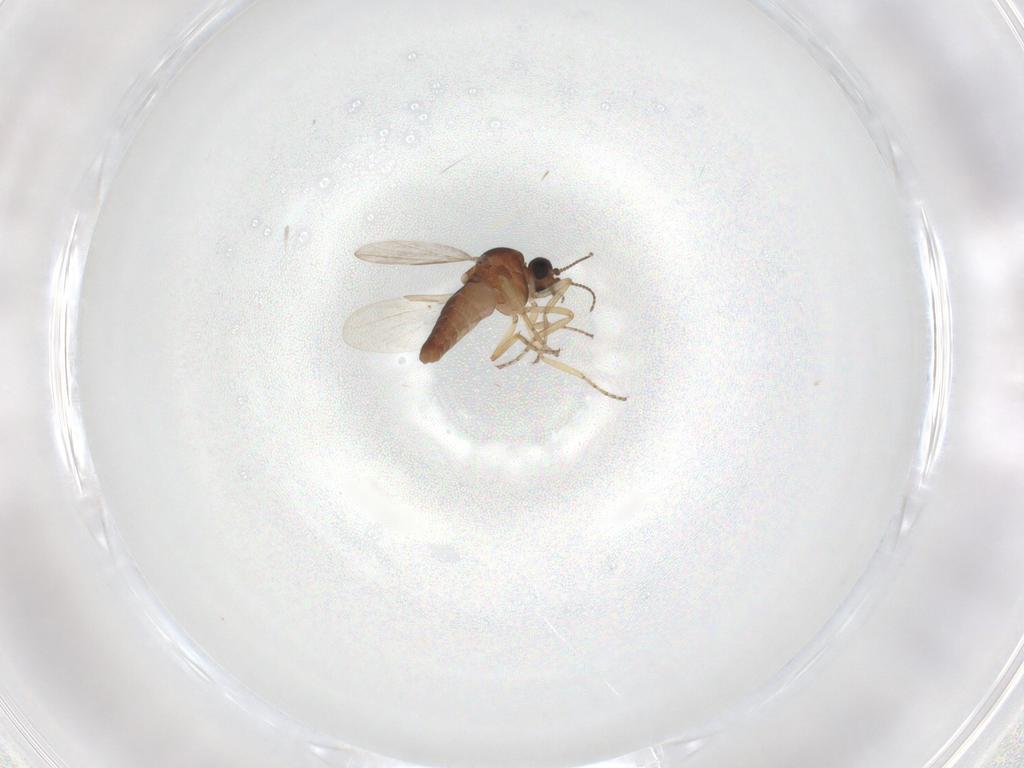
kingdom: Animalia
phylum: Arthropoda
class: Insecta
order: Diptera
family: Ceratopogonidae
